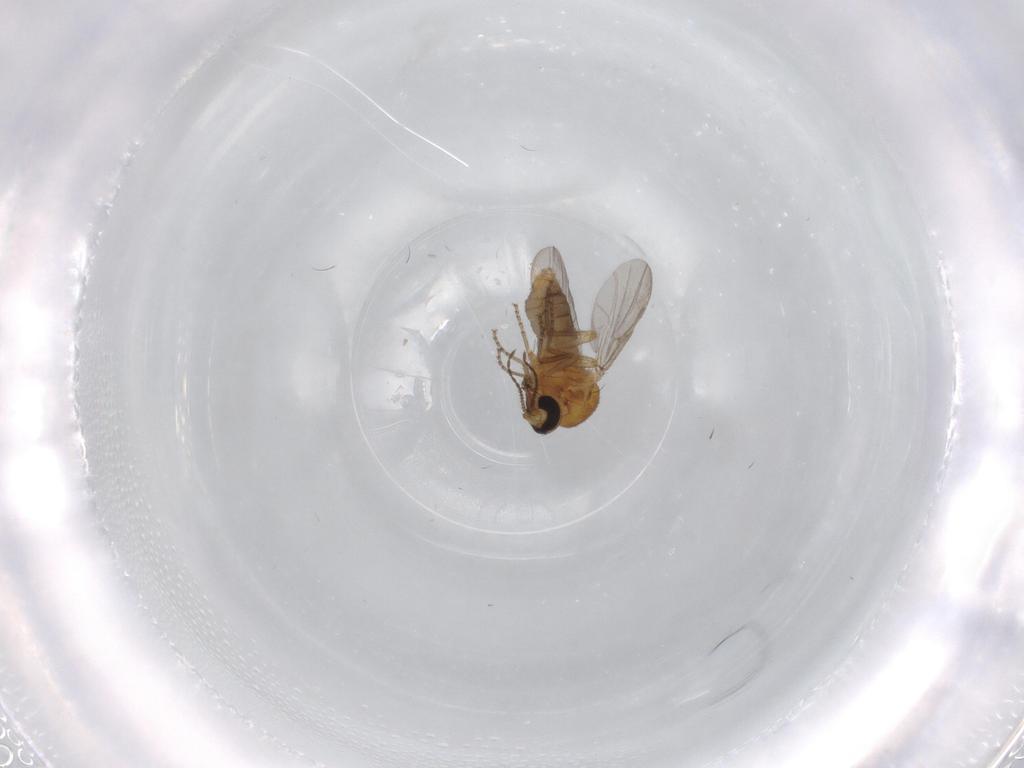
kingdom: Animalia
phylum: Arthropoda
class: Insecta
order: Diptera
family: Ceratopogonidae
